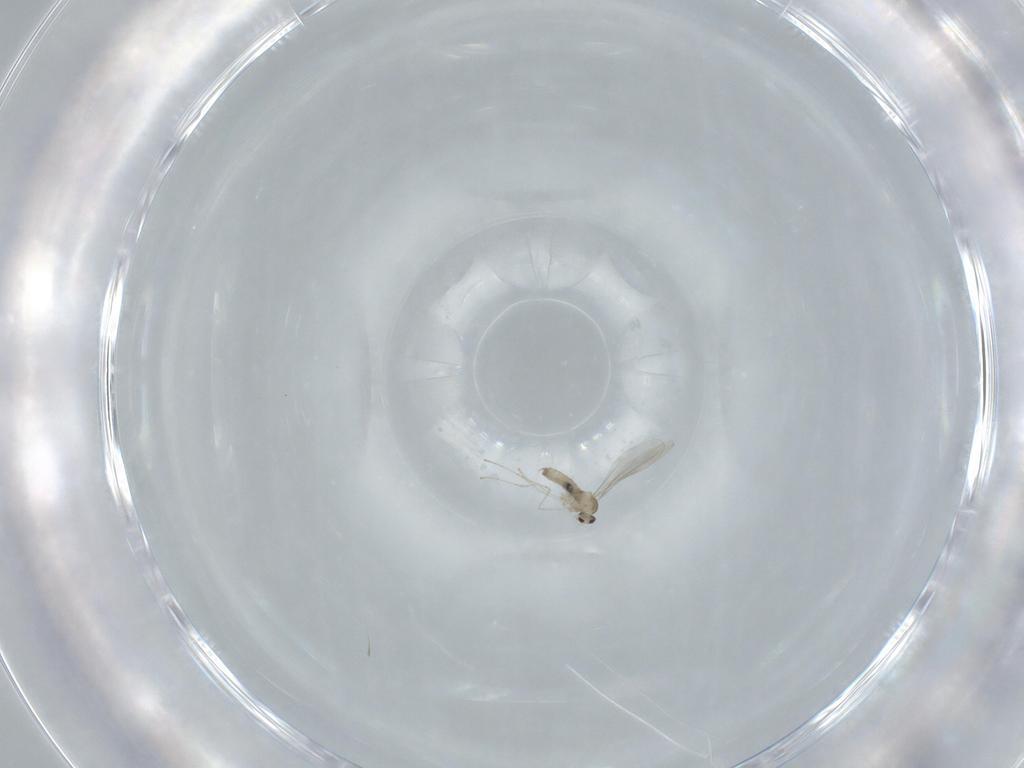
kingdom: Animalia
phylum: Arthropoda
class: Insecta
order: Diptera
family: Cecidomyiidae
